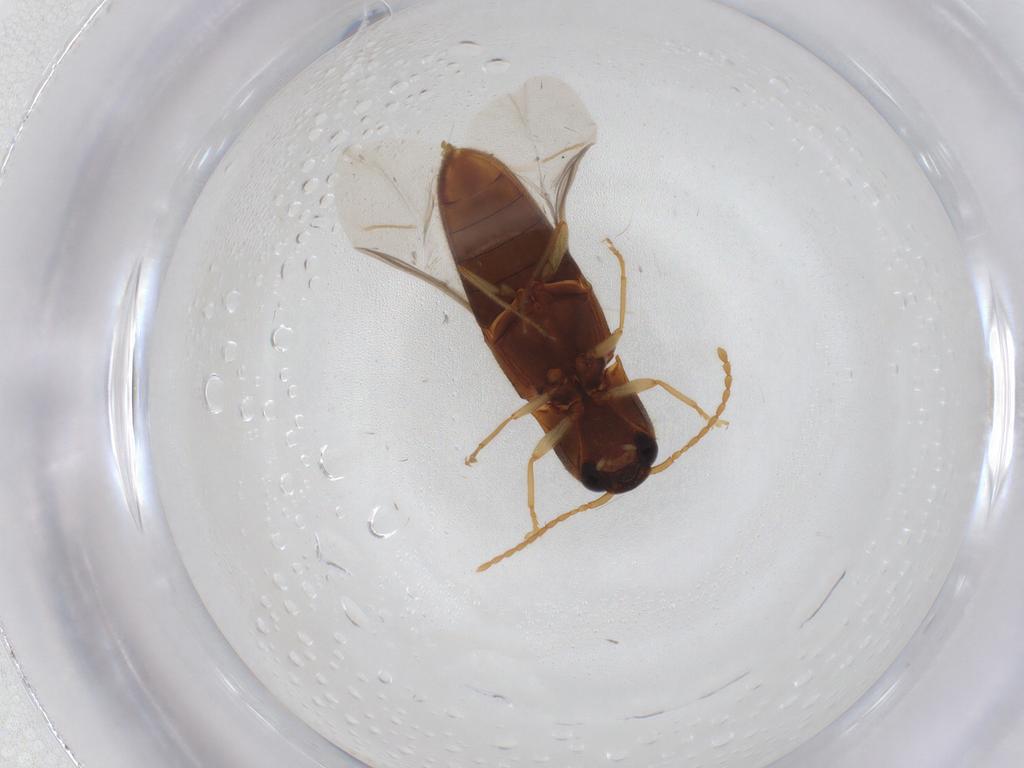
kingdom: Animalia
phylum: Arthropoda
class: Insecta
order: Coleoptera
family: Elateridae
